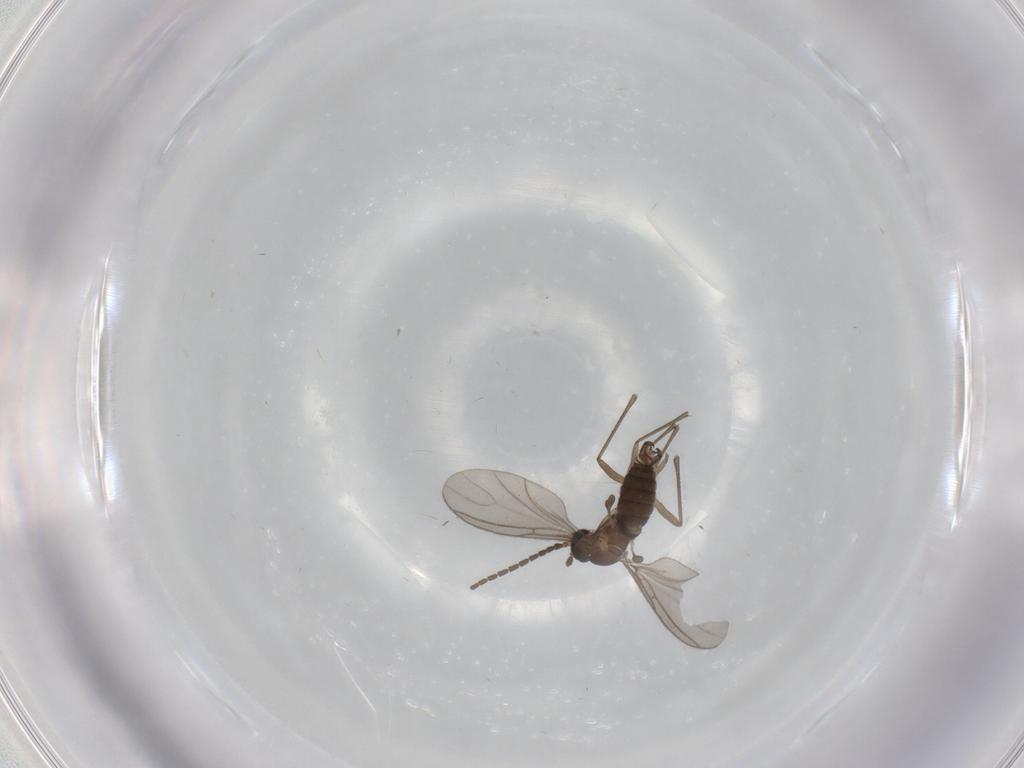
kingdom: Animalia
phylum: Arthropoda
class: Insecta
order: Diptera
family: Sciaridae
